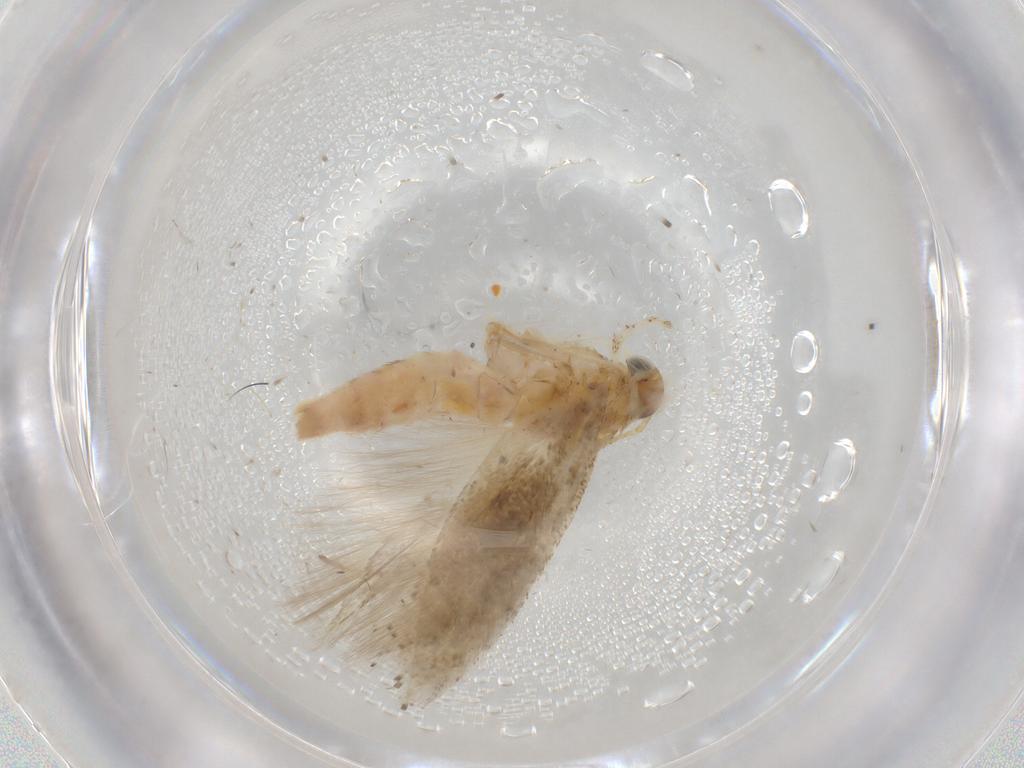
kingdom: Animalia
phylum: Arthropoda
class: Insecta
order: Lepidoptera
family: Gelechiidae
